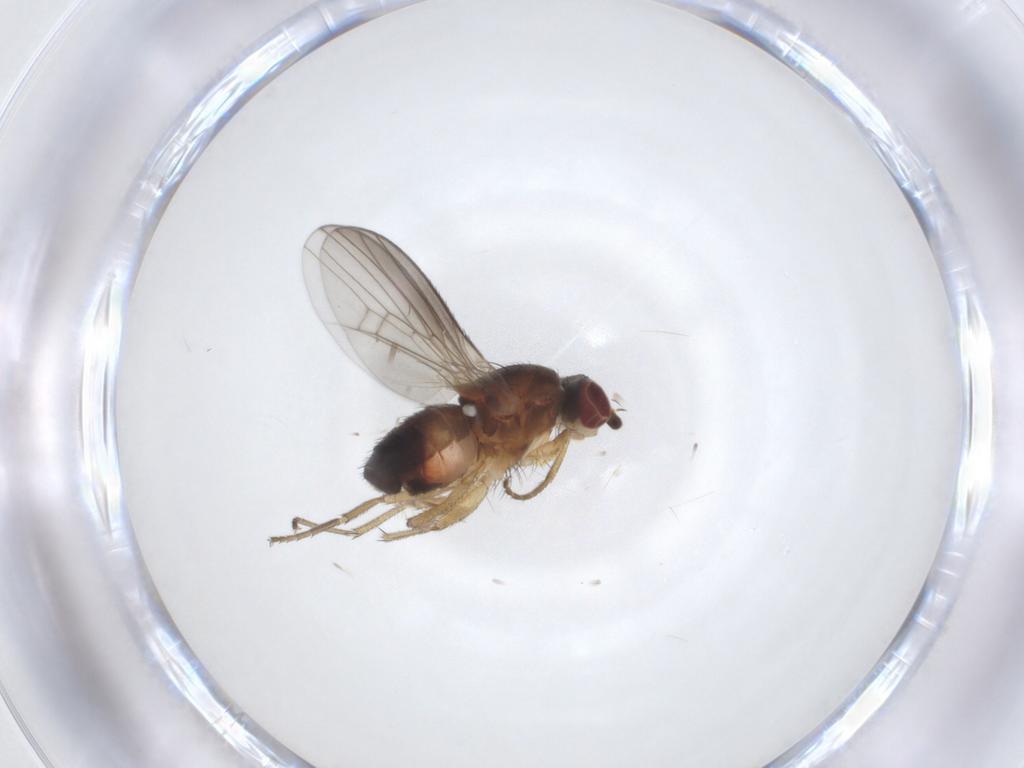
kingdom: Animalia
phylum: Arthropoda
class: Insecta
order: Diptera
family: Heleomyzidae
